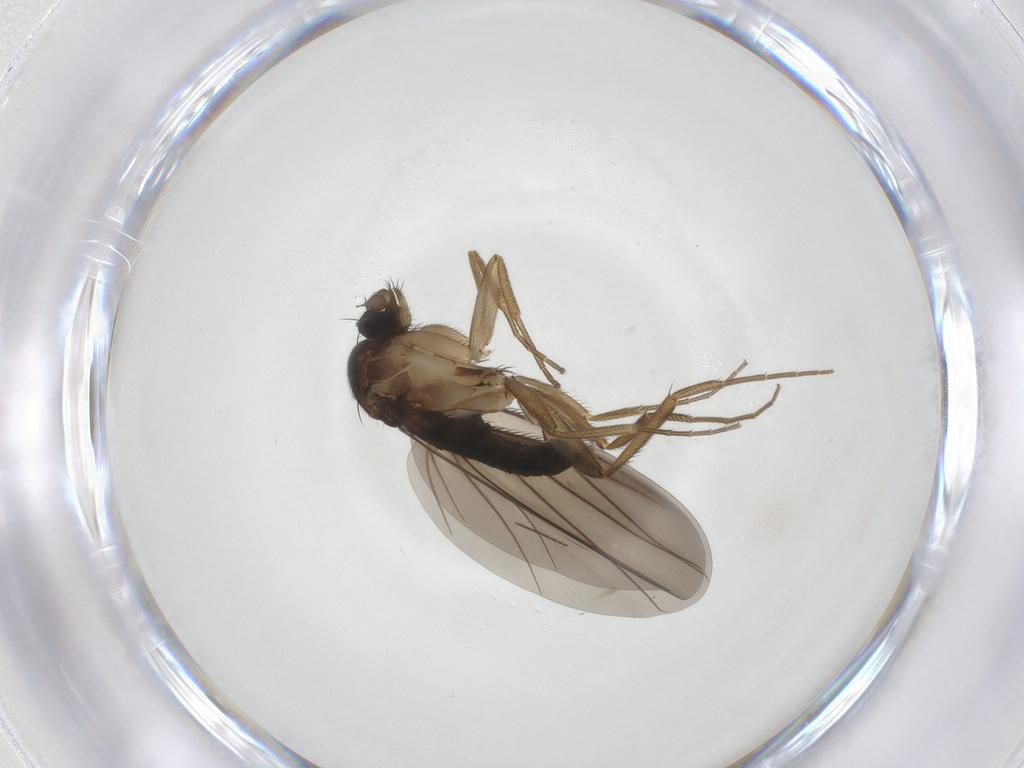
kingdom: Animalia
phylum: Arthropoda
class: Insecta
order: Diptera
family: Phoridae
